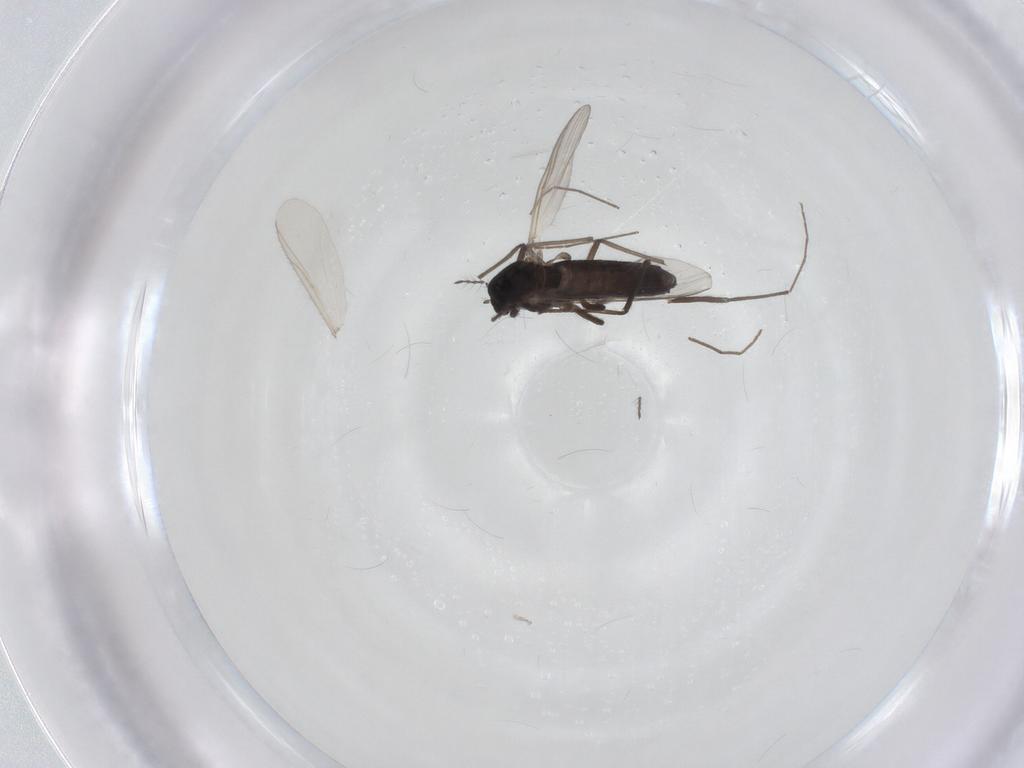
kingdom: Animalia
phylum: Arthropoda
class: Insecta
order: Diptera
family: Chironomidae
